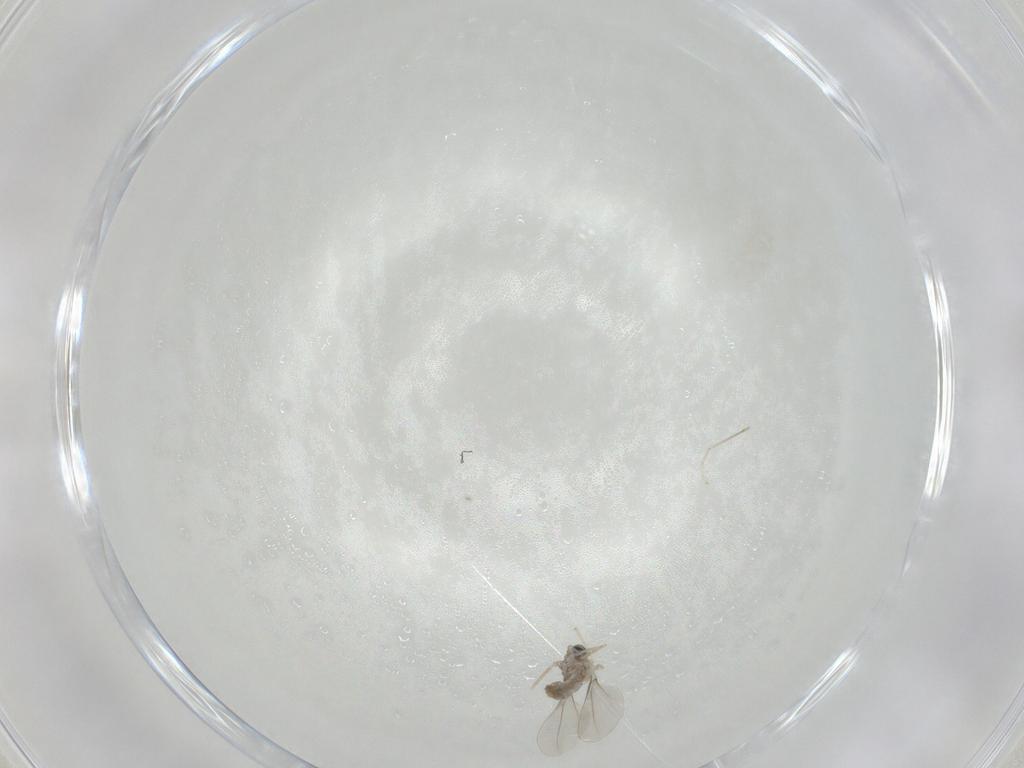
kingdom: Animalia
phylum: Arthropoda
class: Insecta
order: Diptera
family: Cecidomyiidae
